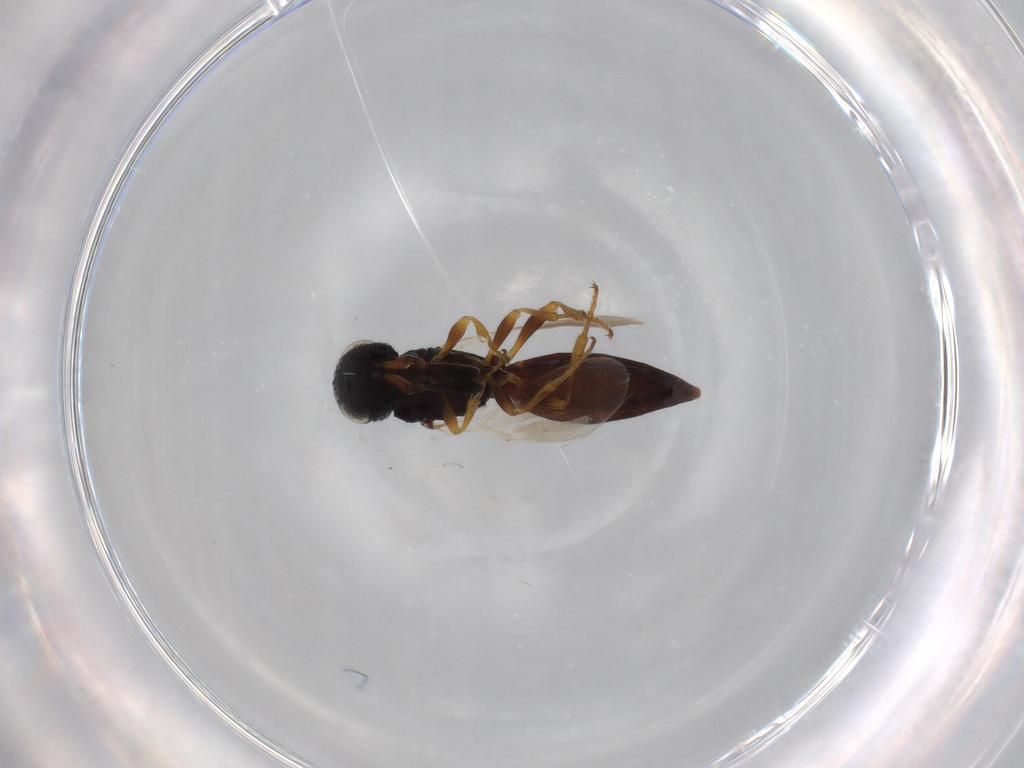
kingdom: Animalia
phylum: Arthropoda
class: Insecta
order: Hymenoptera
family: Scelionidae
